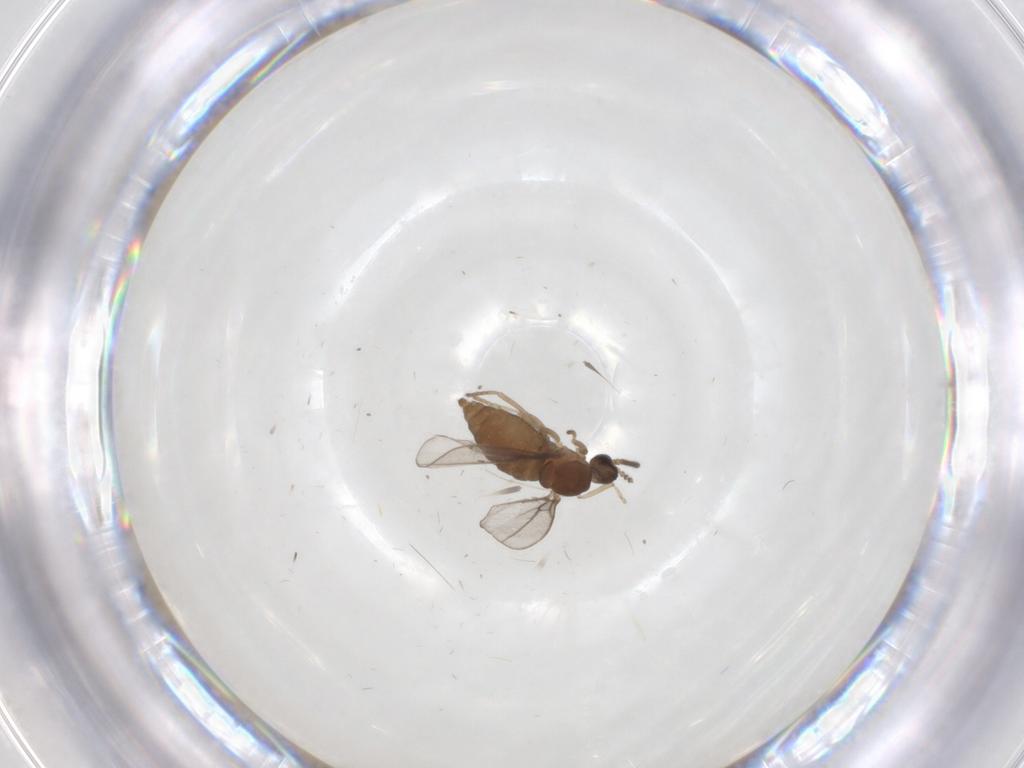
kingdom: Animalia
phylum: Arthropoda
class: Insecta
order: Diptera
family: Cecidomyiidae
